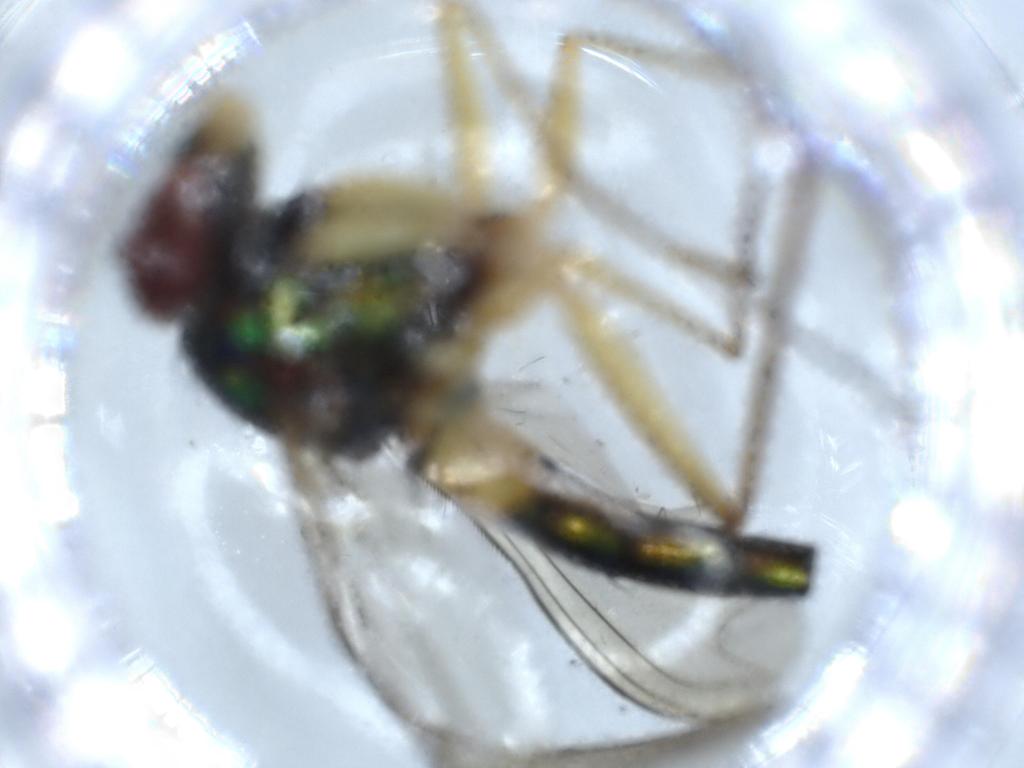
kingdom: Animalia
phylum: Arthropoda
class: Insecta
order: Diptera
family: Dolichopodidae
